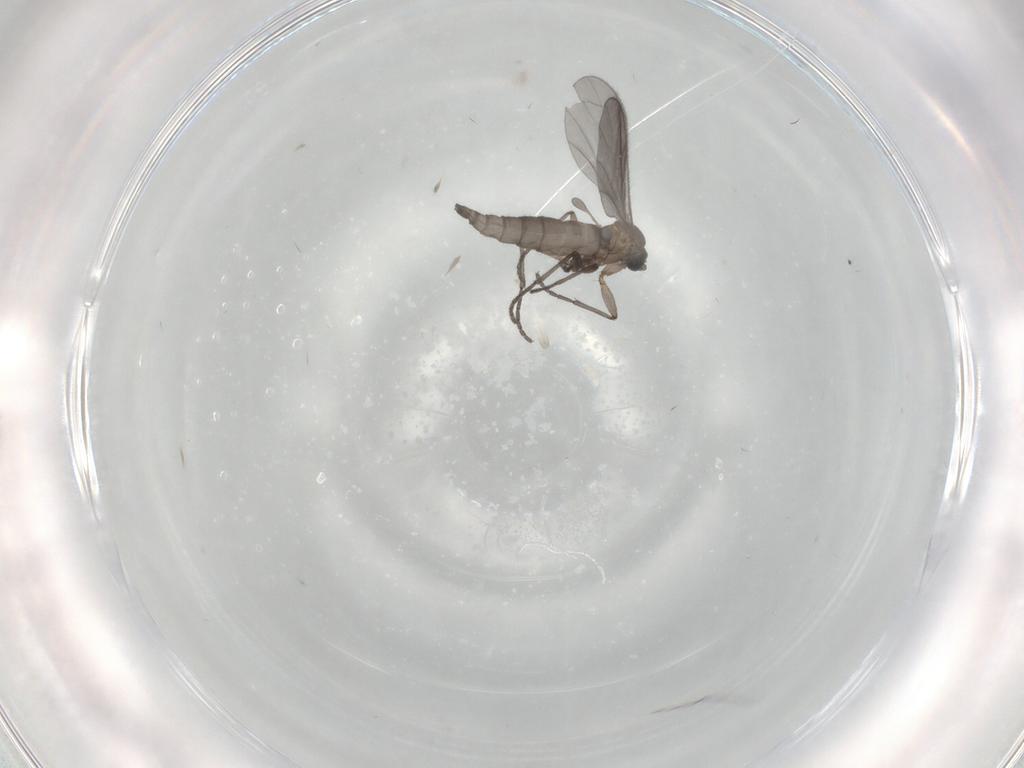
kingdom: Animalia
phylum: Arthropoda
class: Insecta
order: Diptera
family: Sciaridae
